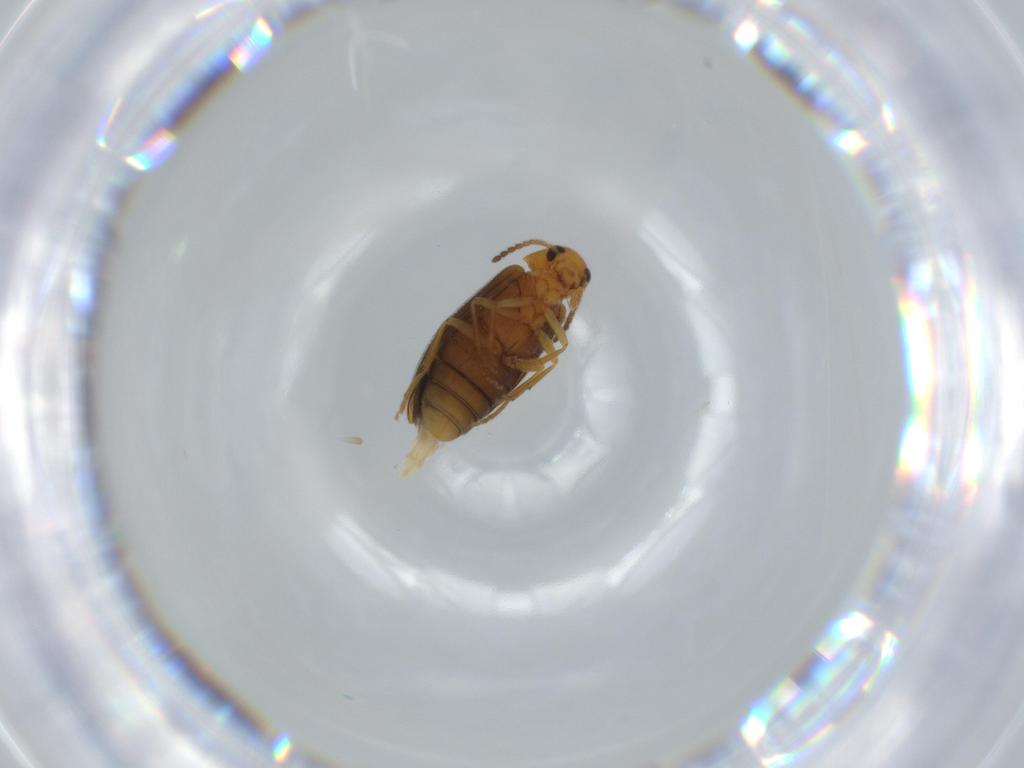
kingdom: Animalia
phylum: Arthropoda
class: Insecta
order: Coleoptera
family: Melandryidae
